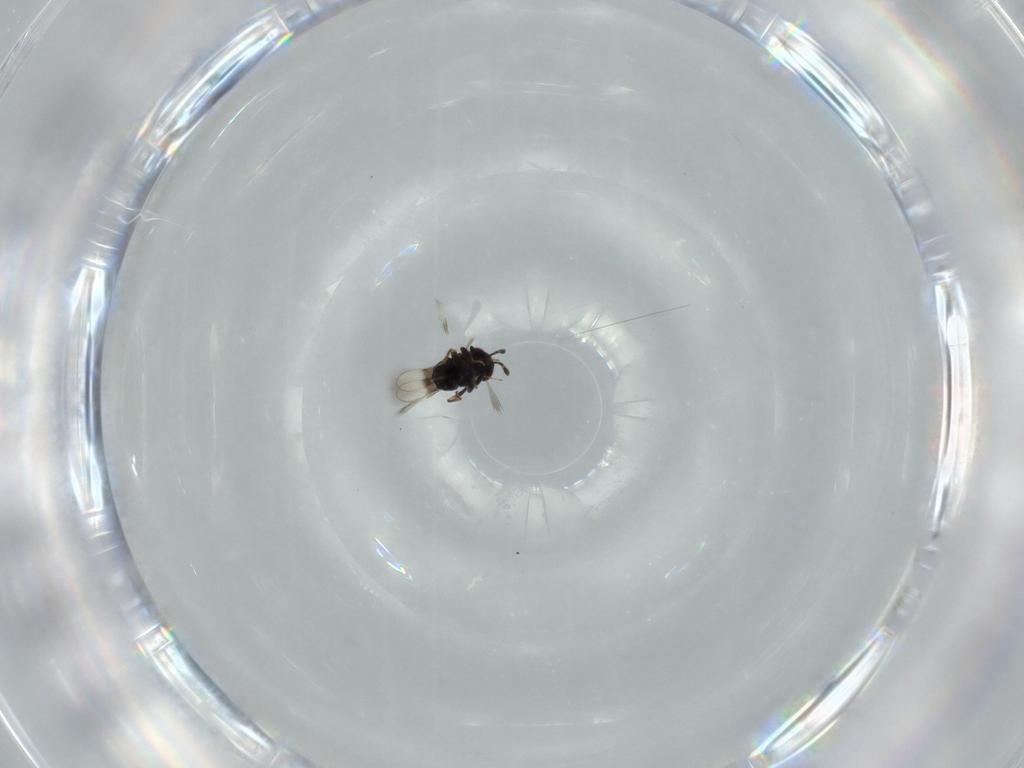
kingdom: Animalia
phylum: Arthropoda
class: Insecta
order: Hymenoptera
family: Azotidae
